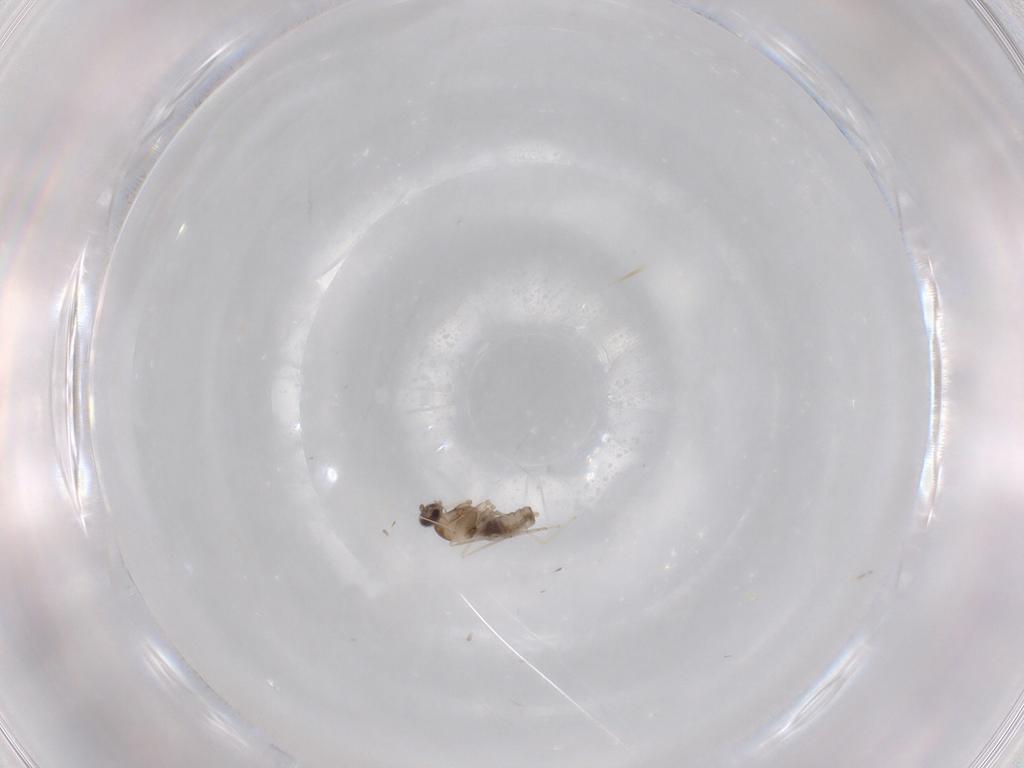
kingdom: Animalia
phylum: Arthropoda
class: Insecta
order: Diptera
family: Cecidomyiidae
